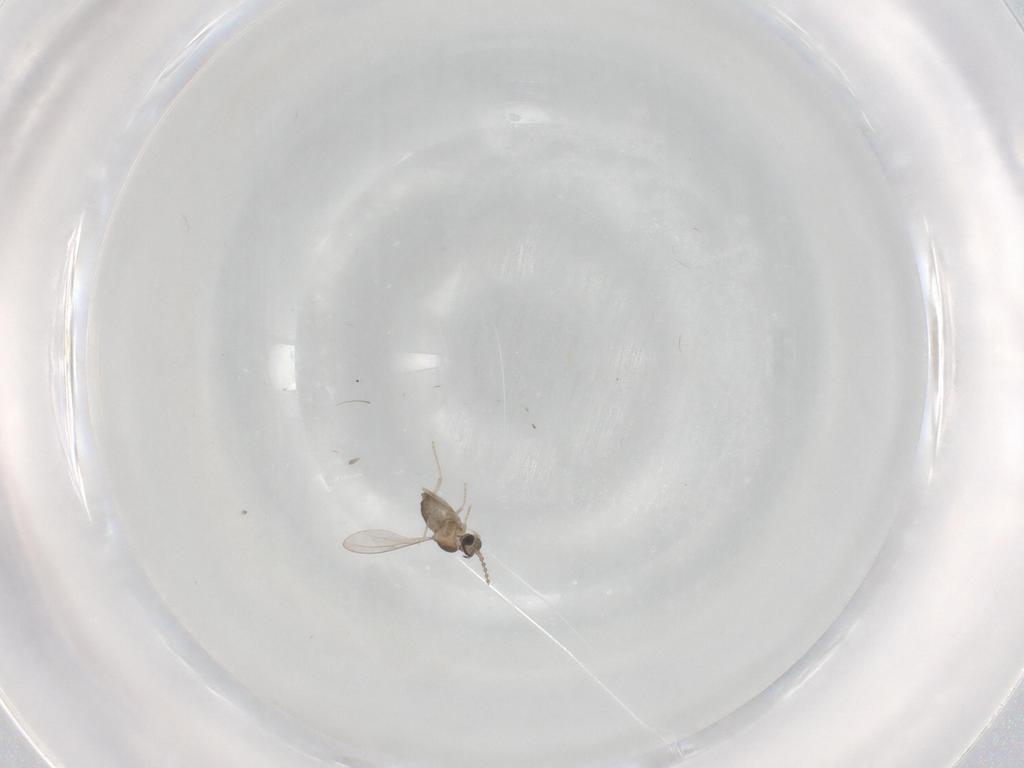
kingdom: Animalia
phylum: Arthropoda
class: Insecta
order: Diptera
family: Cecidomyiidae
